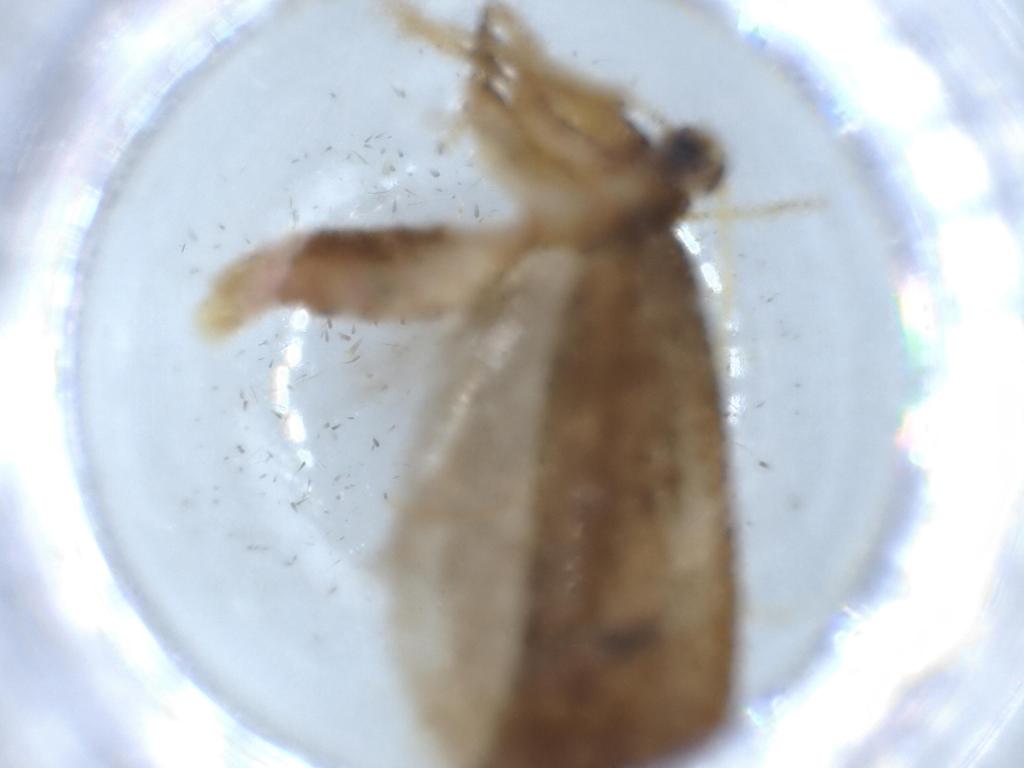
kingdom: Animalia
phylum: Arthropoda
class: Insecta
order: Lepidoptera
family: Lecithoceridae
